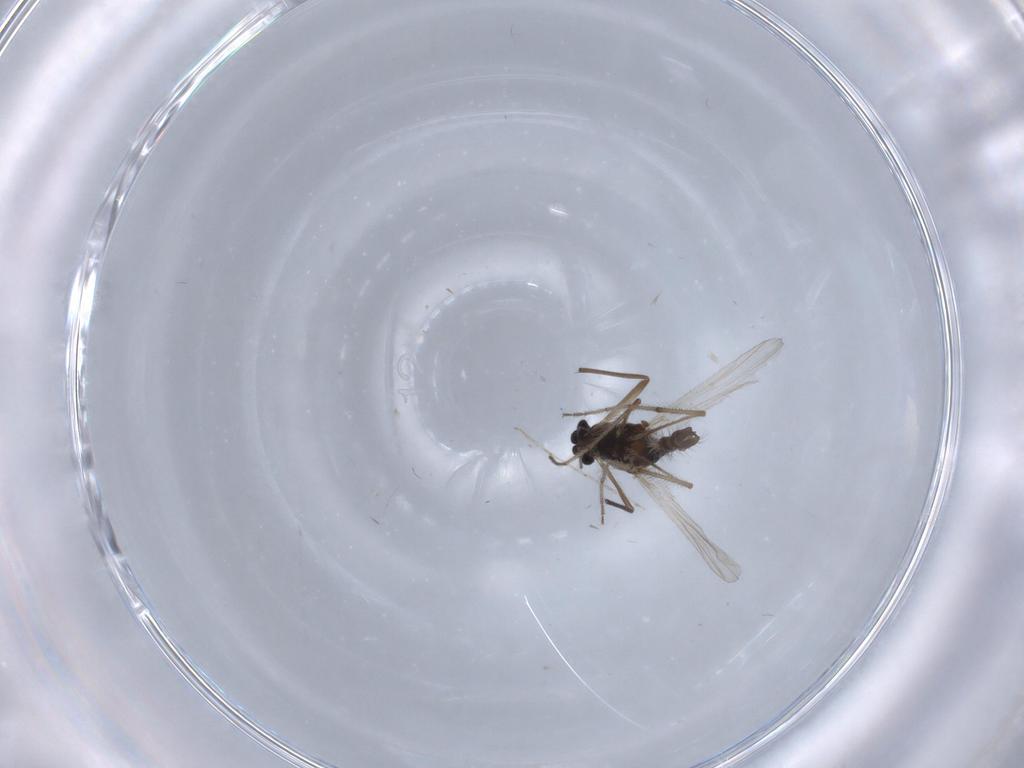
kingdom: Animalia
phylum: Arthropoda
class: Insecta
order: Diptera
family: Chironomidae
